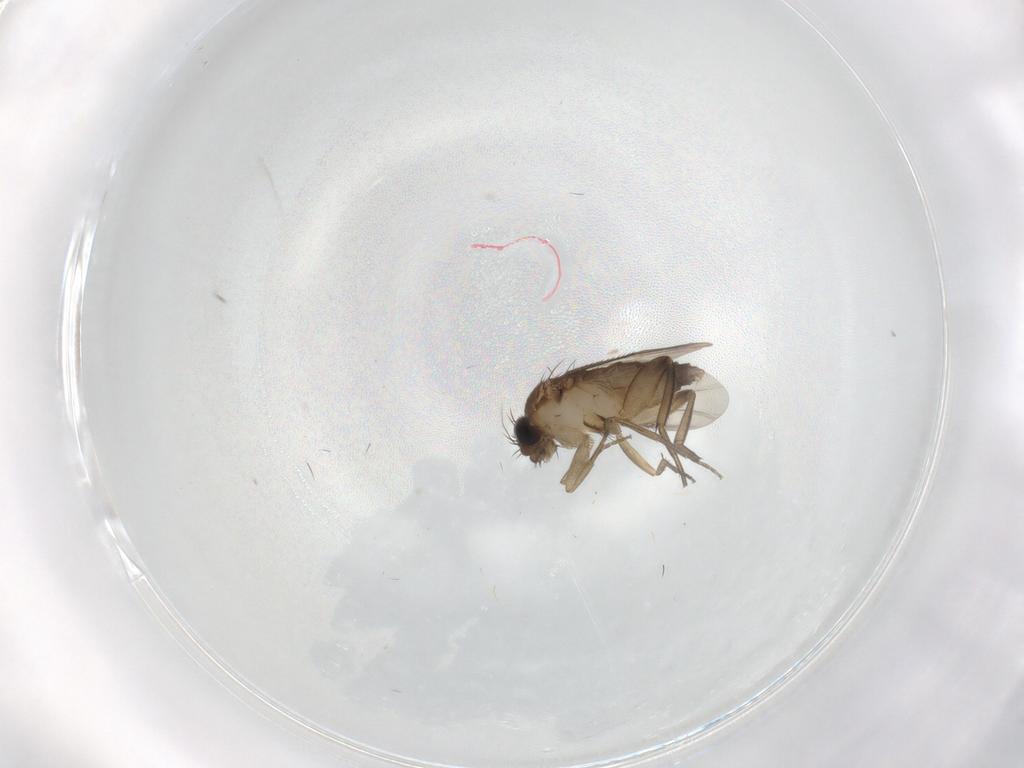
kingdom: Animalia
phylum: Arthropoda
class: Insecta
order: Diptera
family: Phoridae
